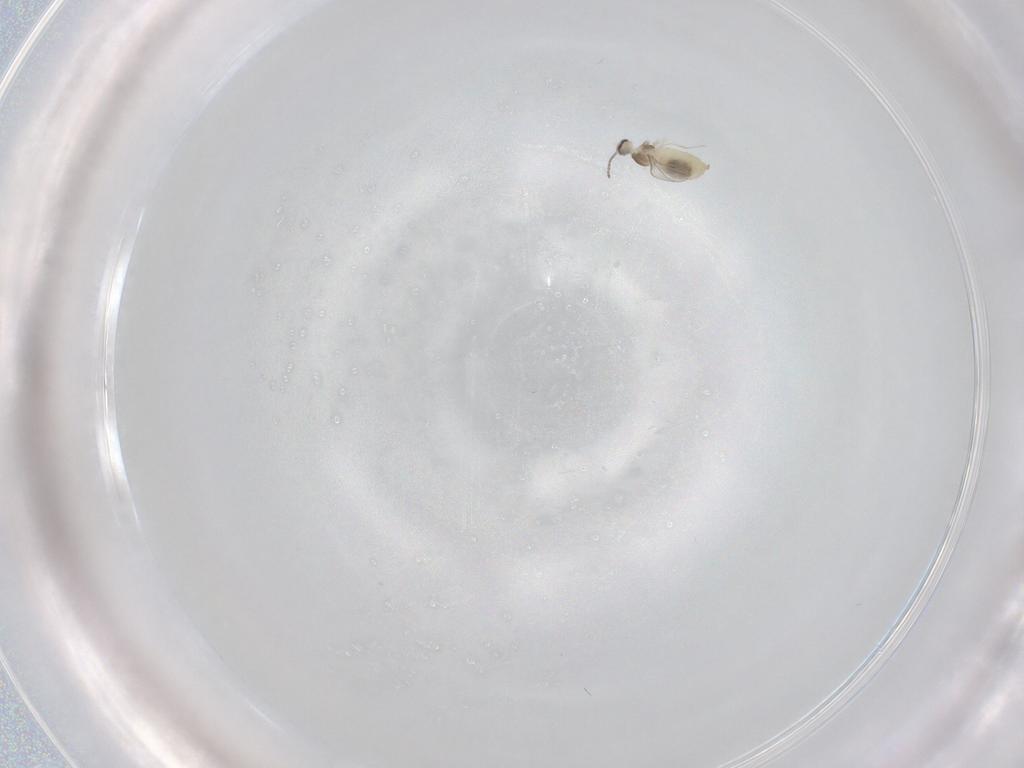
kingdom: Animalia
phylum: Arthropoda
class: Insecta
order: Diptera
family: Cecidomyiidae
